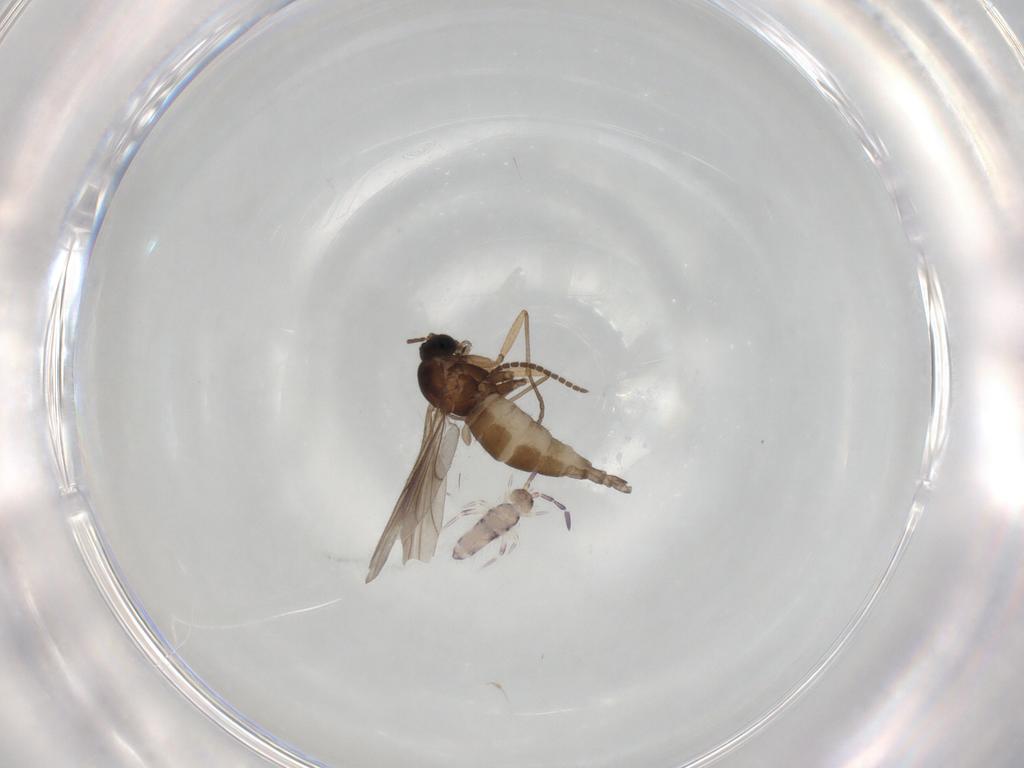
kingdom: Animalia
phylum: Arthropoda
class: Insecta
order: Diptera
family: Sciaridae
